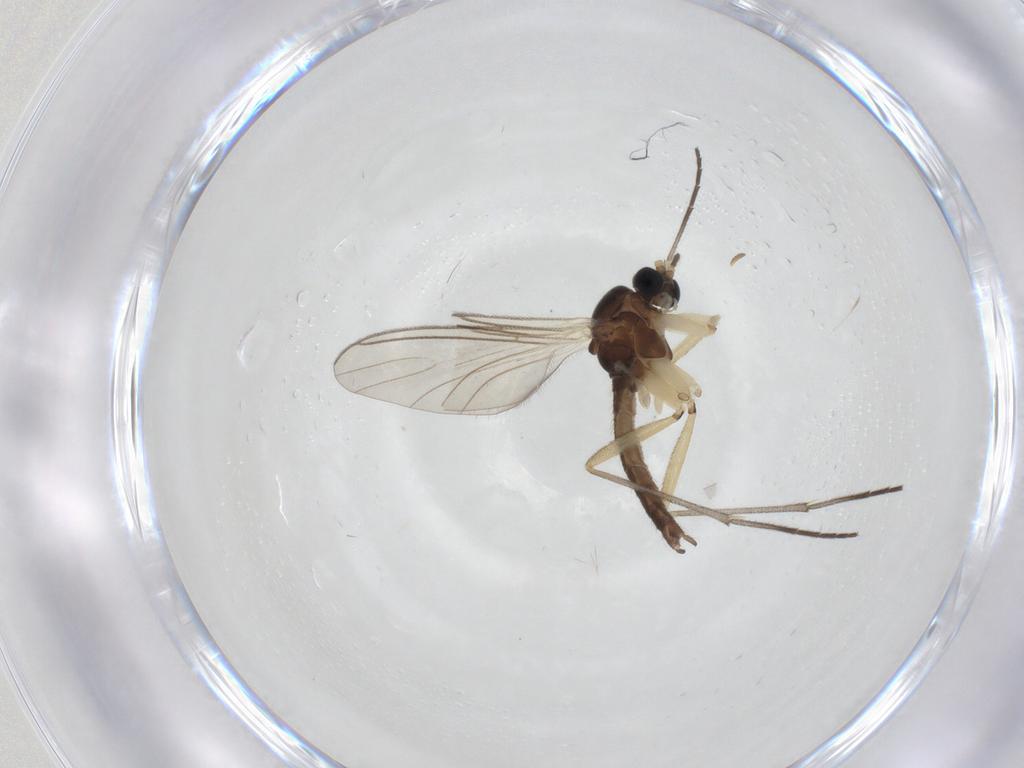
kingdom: Animalia
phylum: Arthropoda
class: Insecta
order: Diptera
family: Sciaridae
